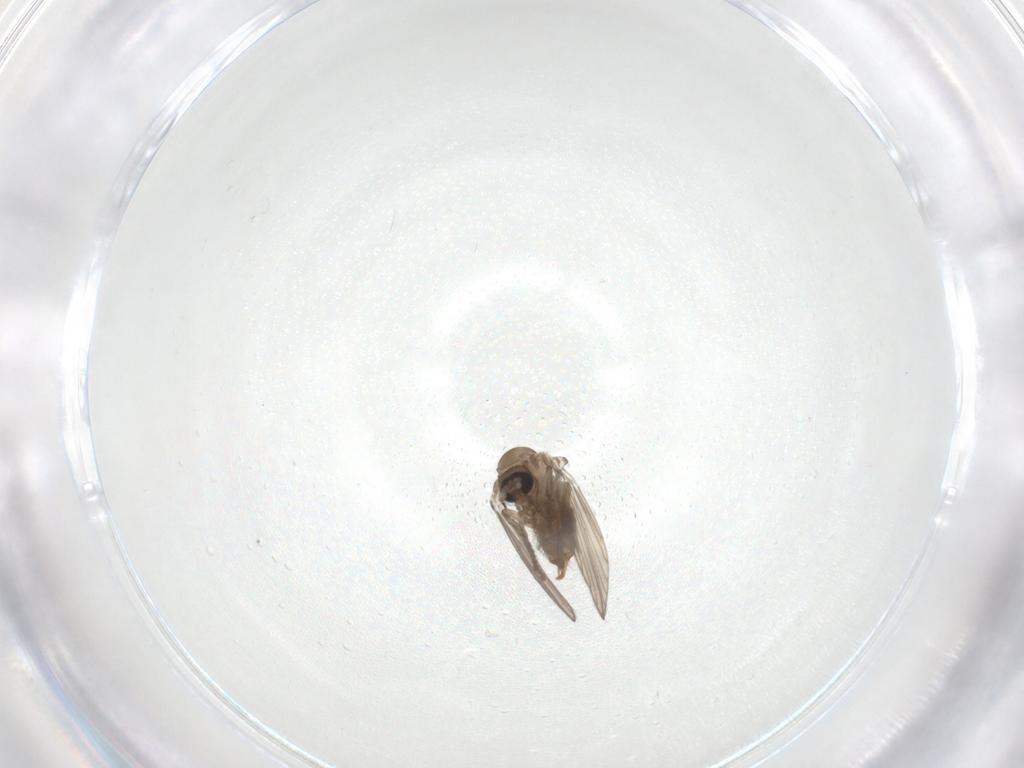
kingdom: Animalia
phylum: Arthropoda
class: Insecta
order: Diptera
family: Psychodidae
